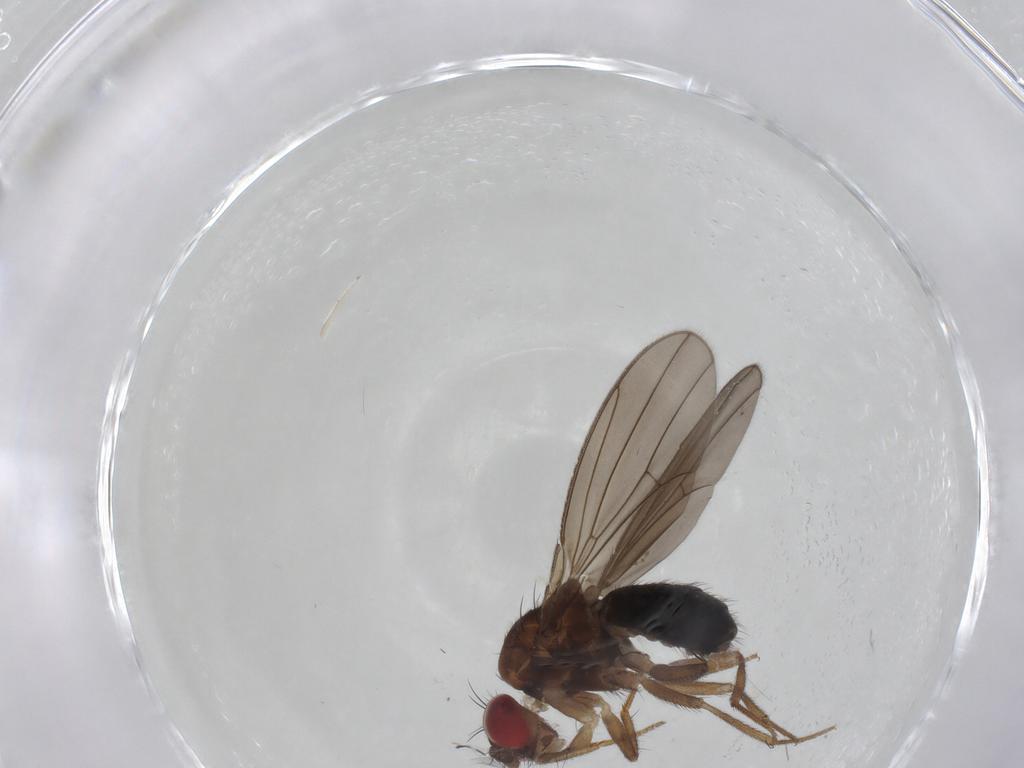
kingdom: Animalia
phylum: Arthropoda
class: Insecta
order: Diptera
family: Drosophilidae
